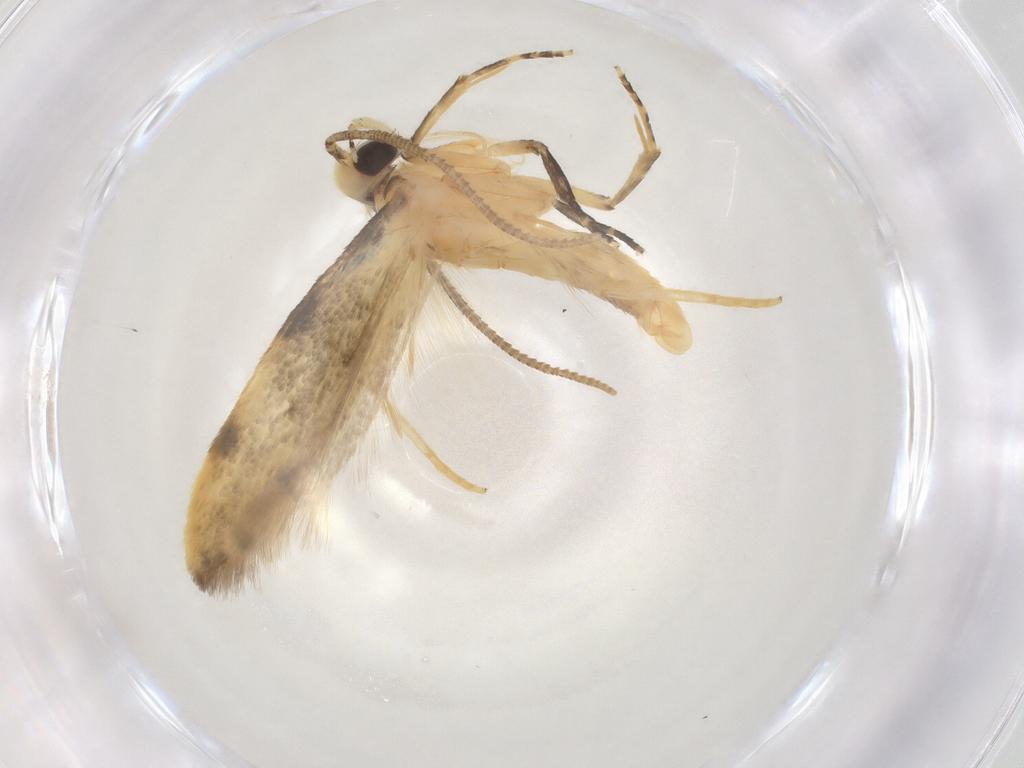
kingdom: Animalia
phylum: Arthropoda
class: Insecta
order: Lepidoptera
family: Autostichidae
